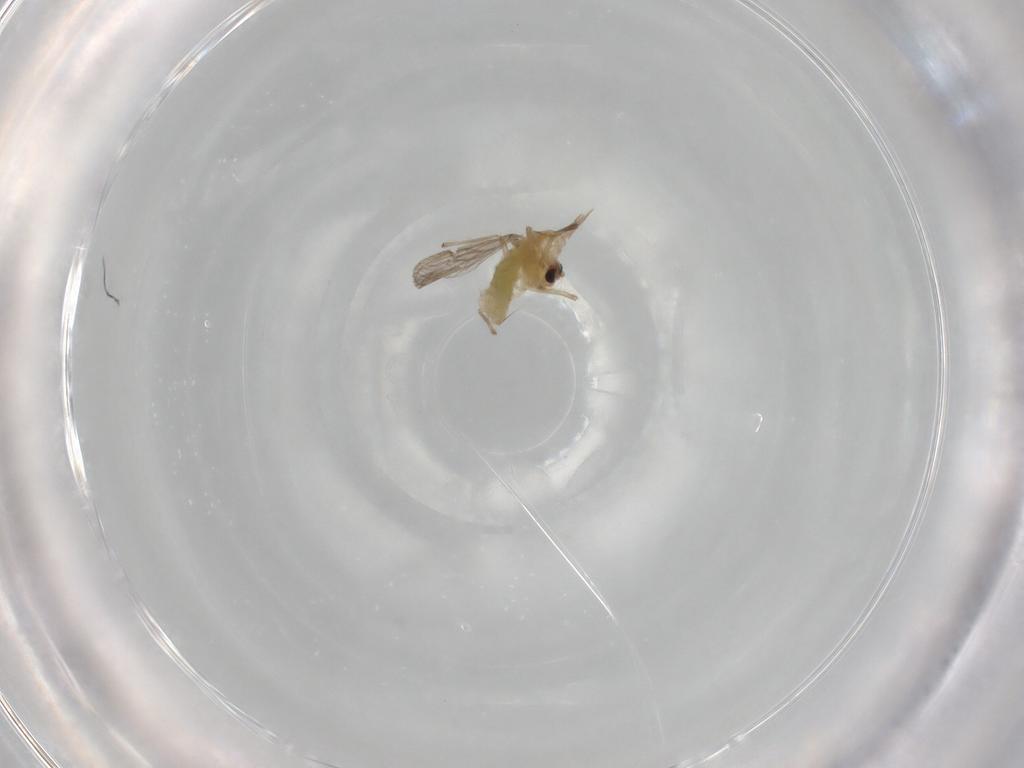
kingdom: Animalia
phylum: Arthropoda
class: Insecta
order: Diptera
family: Chironomidae
